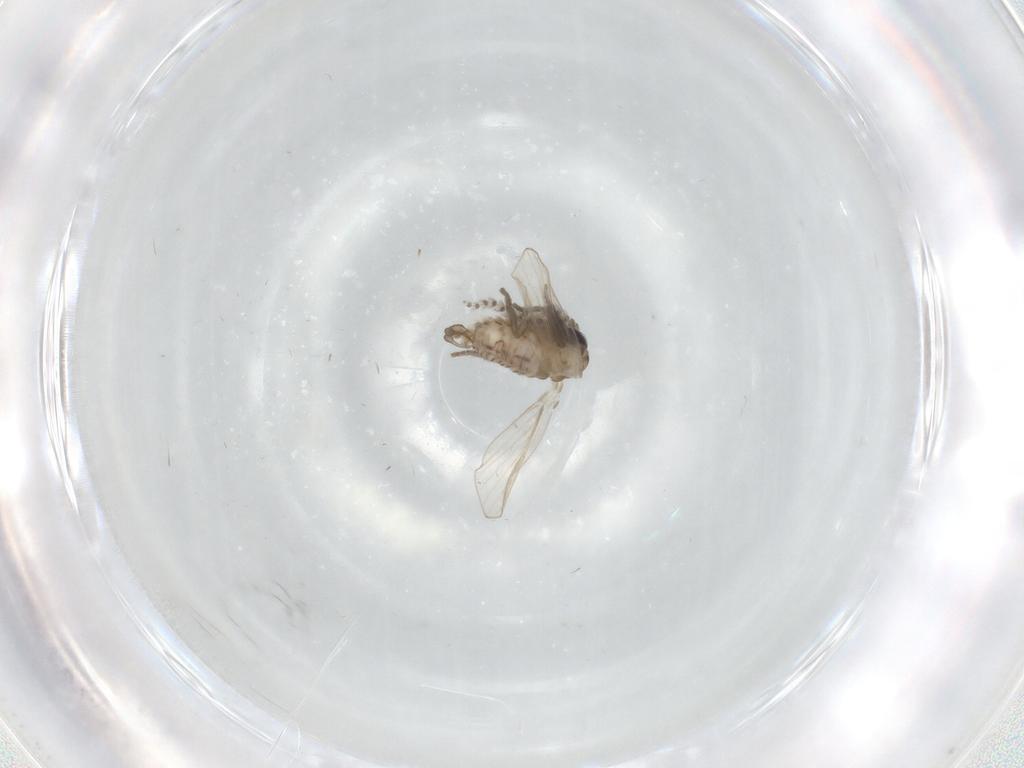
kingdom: Animalia
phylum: Arthropoda
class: Insecta
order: Diptera
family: Psychodidae
